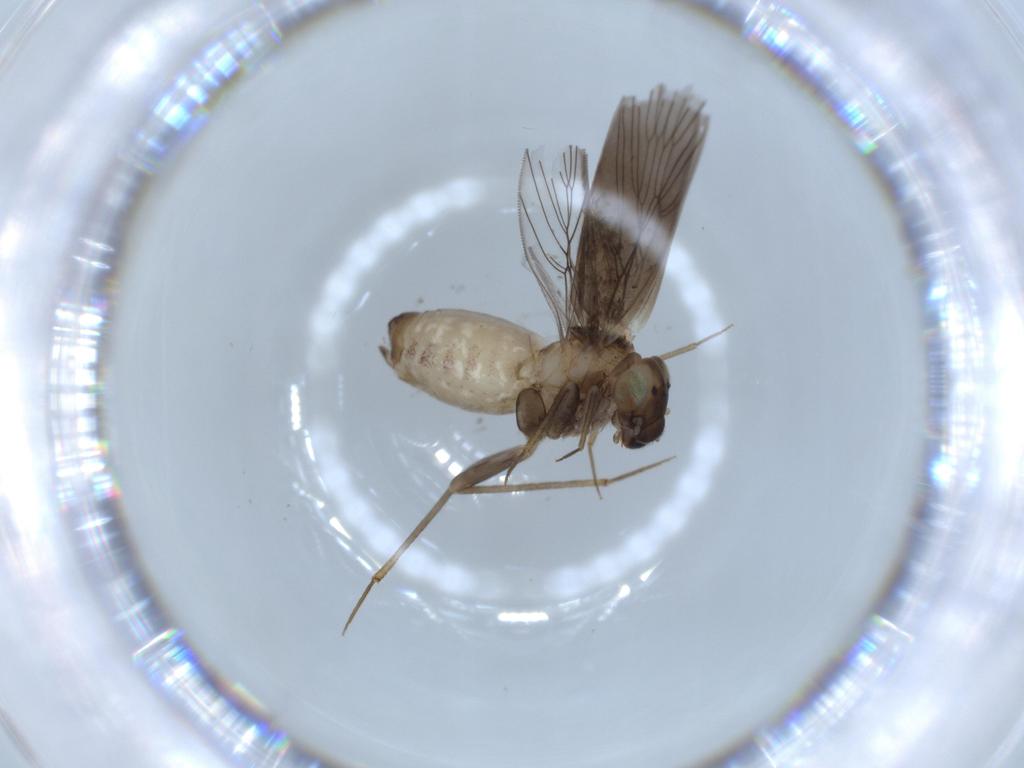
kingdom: Animalia
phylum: Arthropoda
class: Insecta
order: Psocodea
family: Lepidopsocidae
